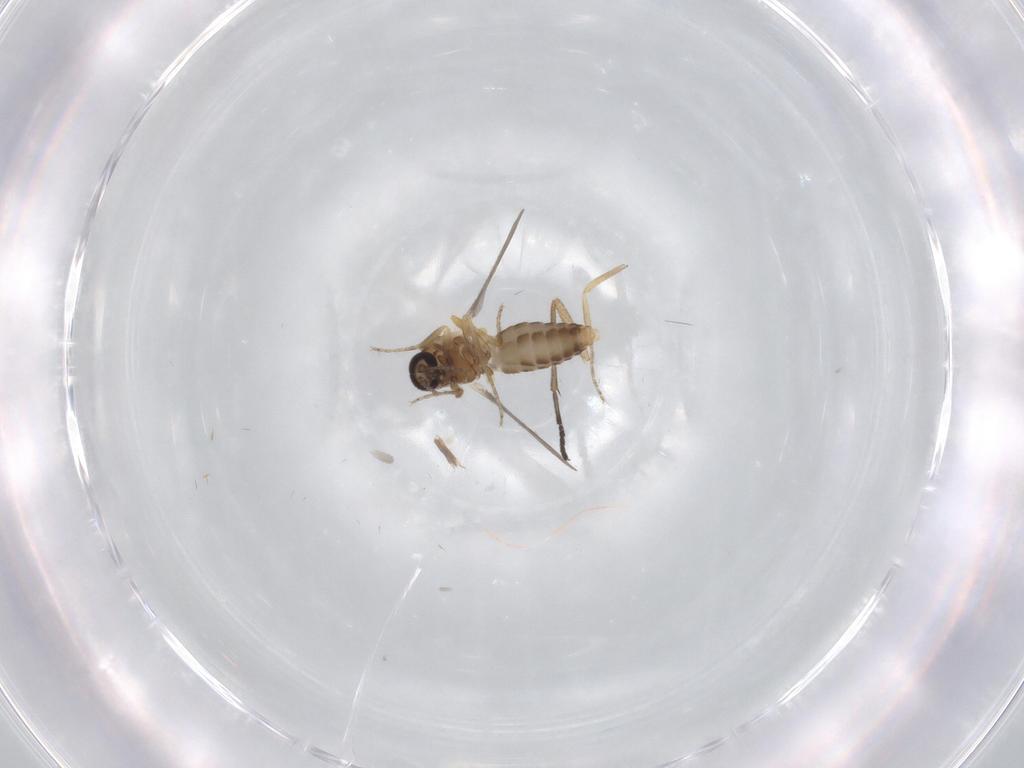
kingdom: Animalia
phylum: Arthropoda
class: Insecta
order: Diptera
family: Ceratopogonidae
